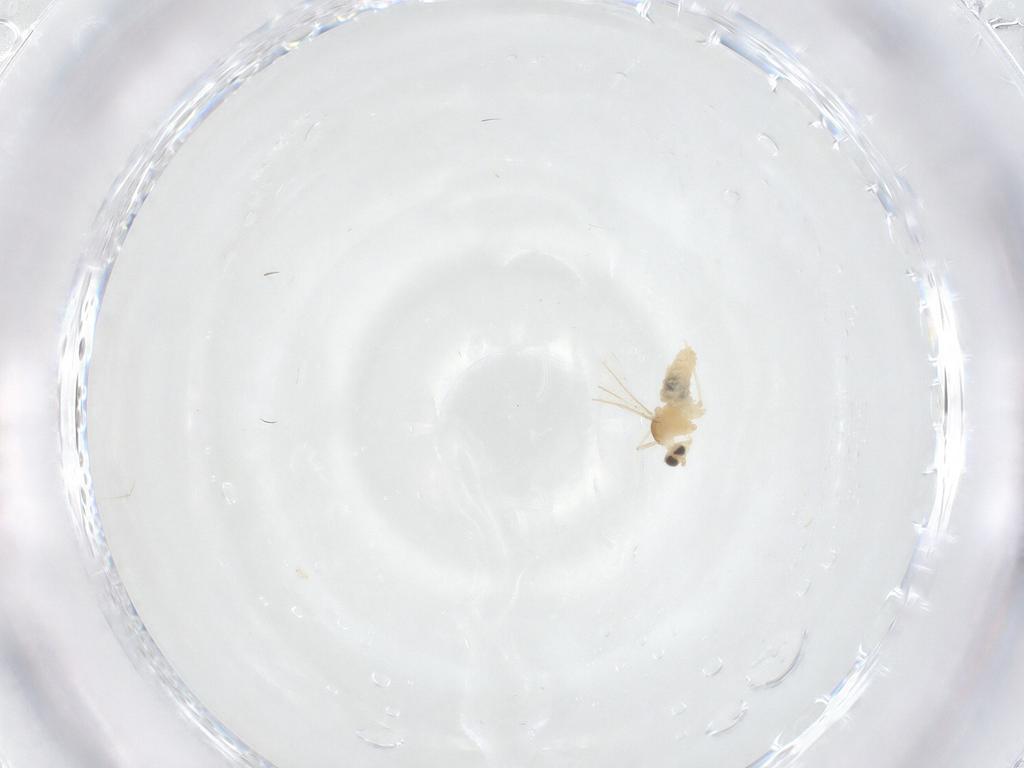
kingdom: Animalia
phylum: Arthropoda
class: Insecta
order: Diptera
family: Cecidomyiidae
